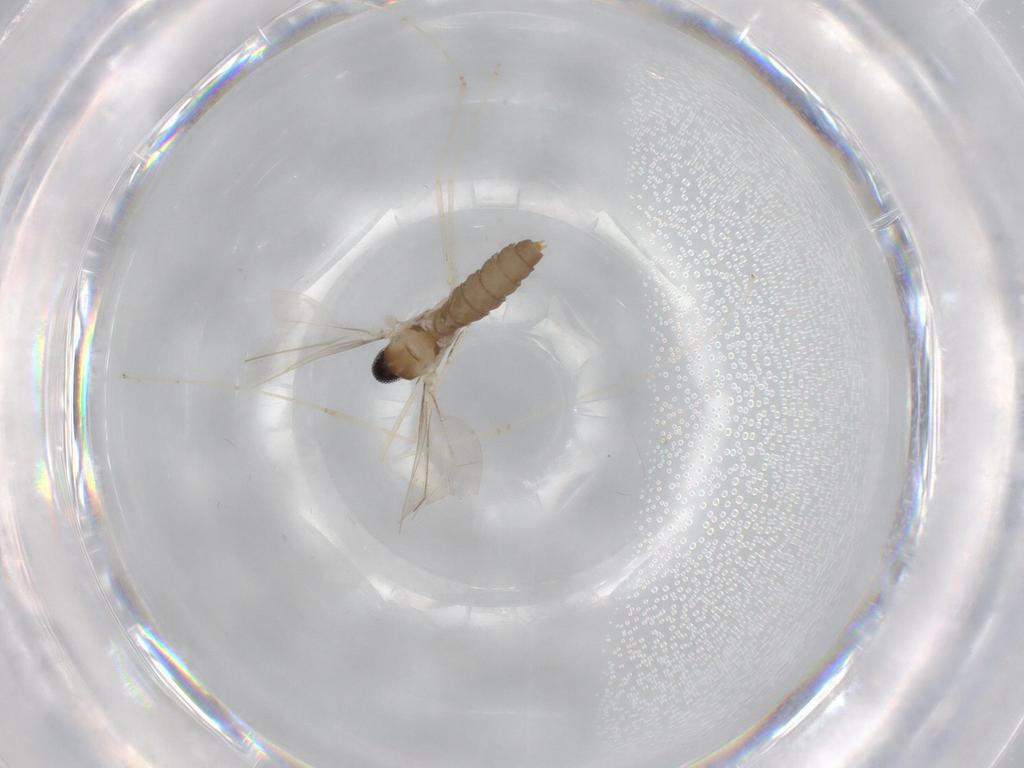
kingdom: Animalia
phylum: Arthropoda
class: Insecta
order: Diptera
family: Cecidomyiidae
